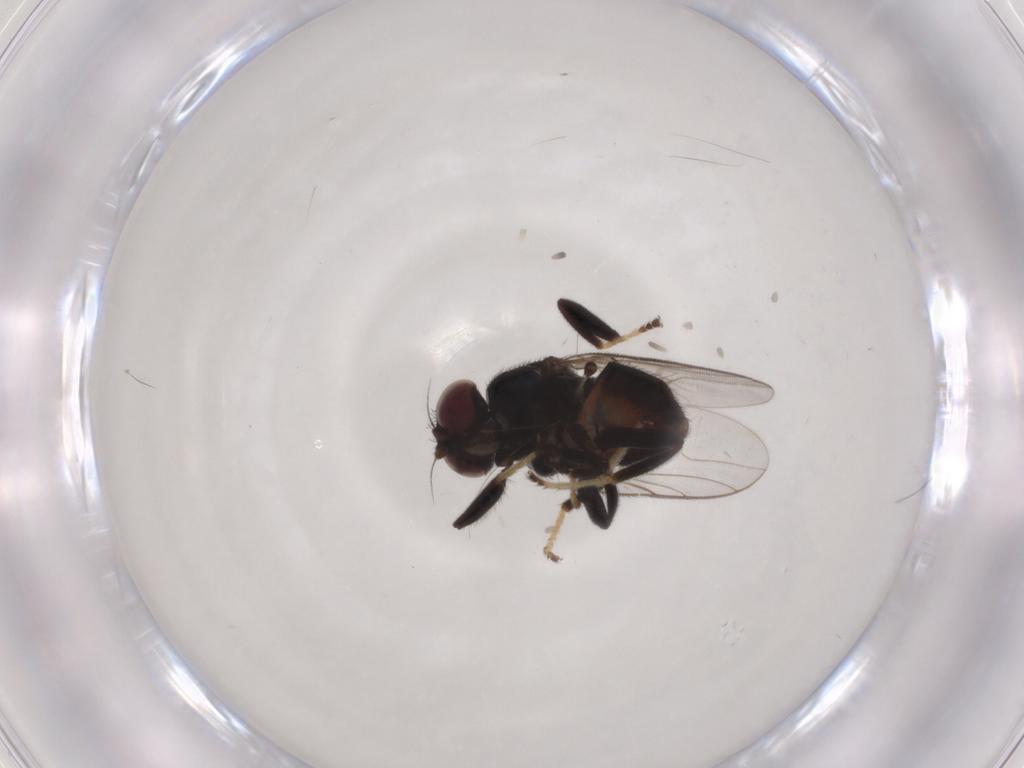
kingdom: Animalia
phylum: Arthropoda
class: Insecta
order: Diptera
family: Chloropidae
